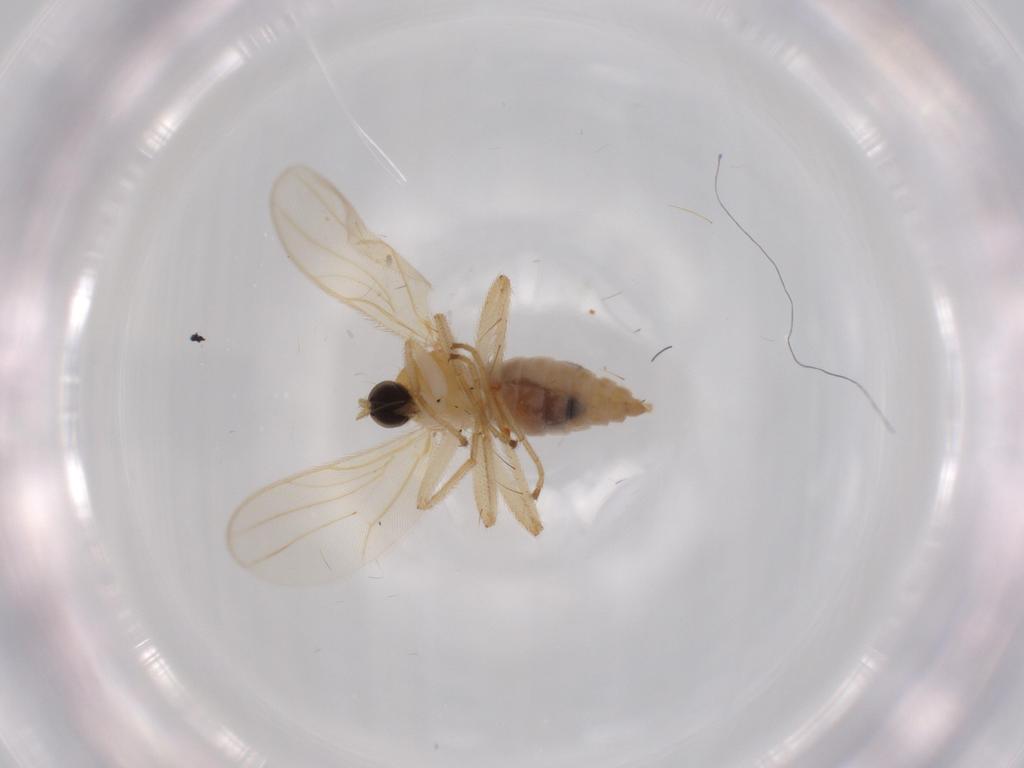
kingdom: Animalia
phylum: Arthropoda
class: Insecta
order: Diptera
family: Hybotidae
